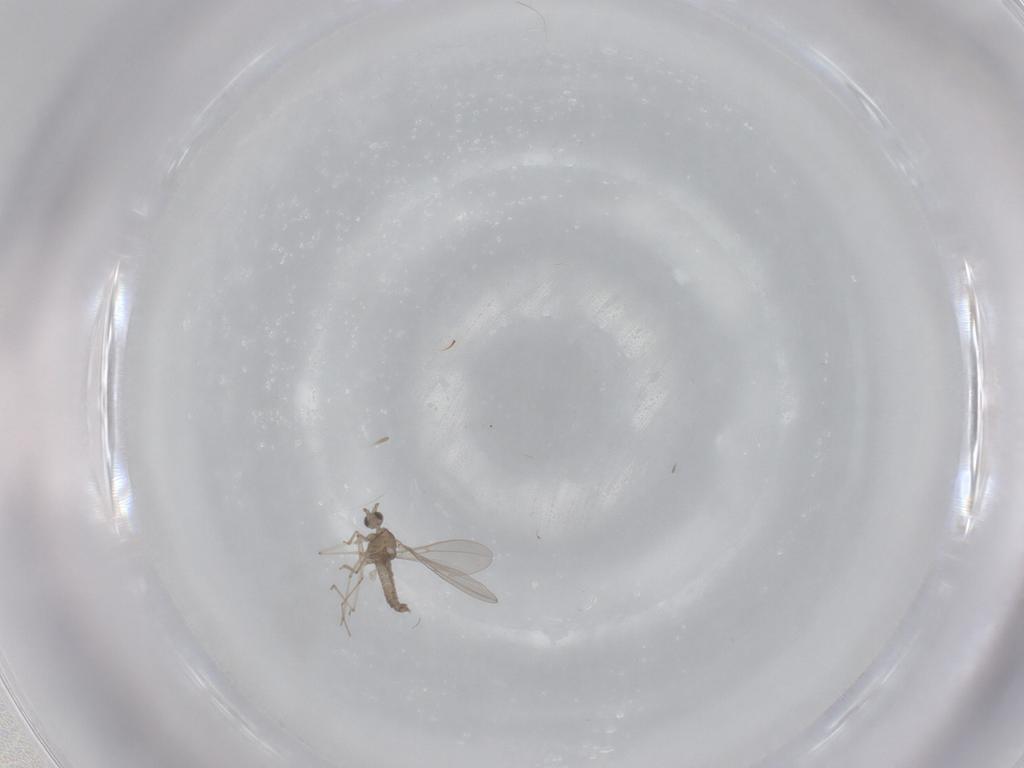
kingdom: Animalia
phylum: Arthropoda
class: Insecta
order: Diptera
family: Cecidomyiidae
